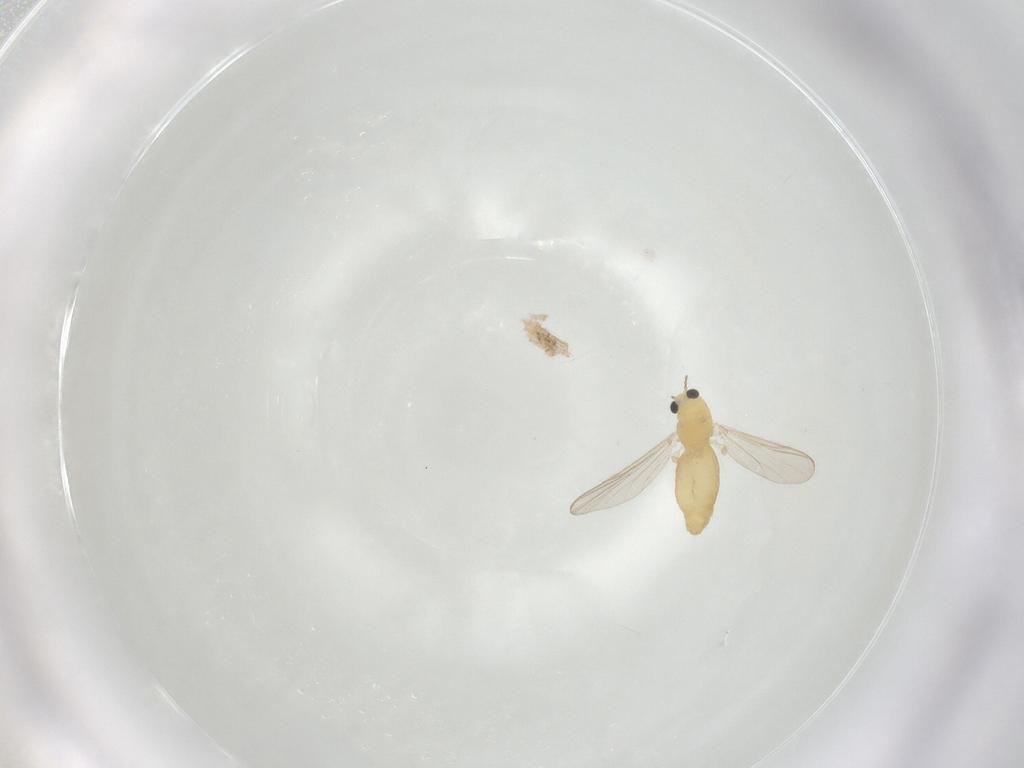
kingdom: Animalia
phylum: Arthropoda
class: Insecta
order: Diptera
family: Chironomidae
